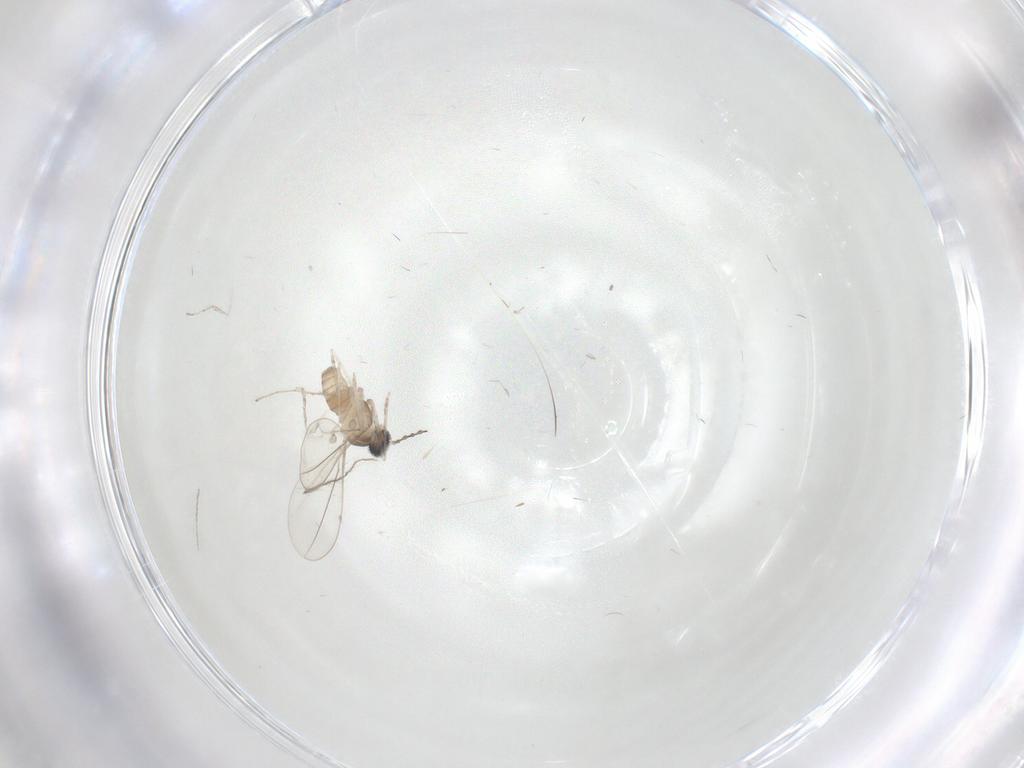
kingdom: Animalia
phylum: Arthropoda
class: Insecta
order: Diptera
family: Cecidomyiidae
